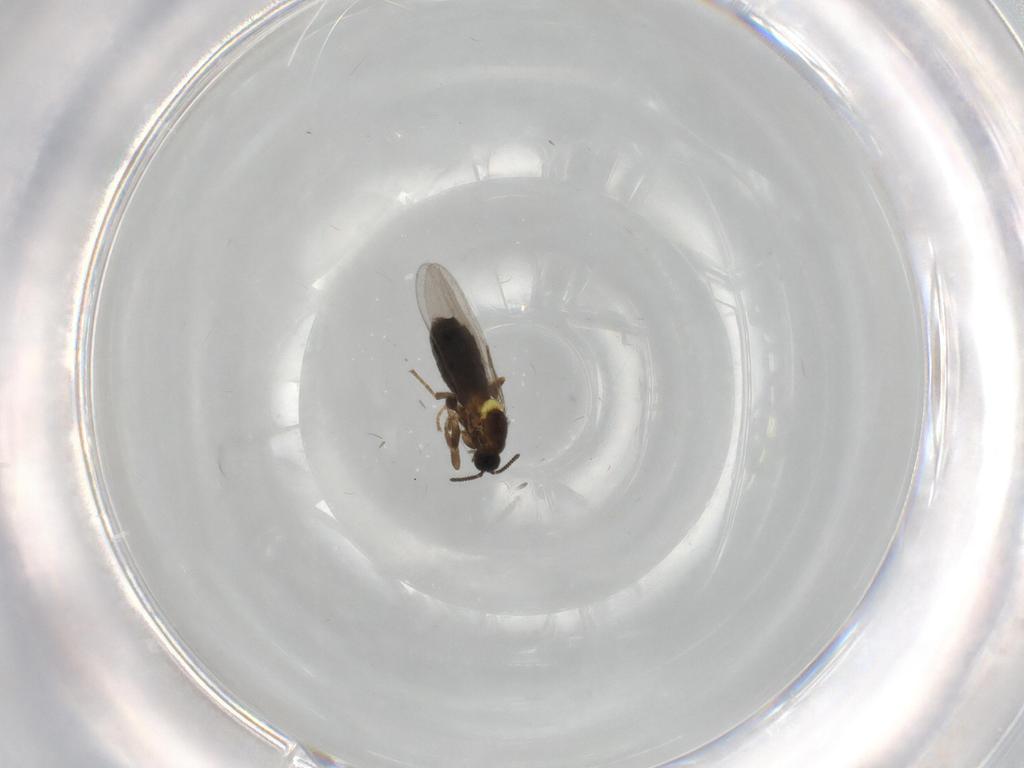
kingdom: Animalia
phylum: Arthropoda
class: Insecta
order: Diptera
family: Scatopsidae
